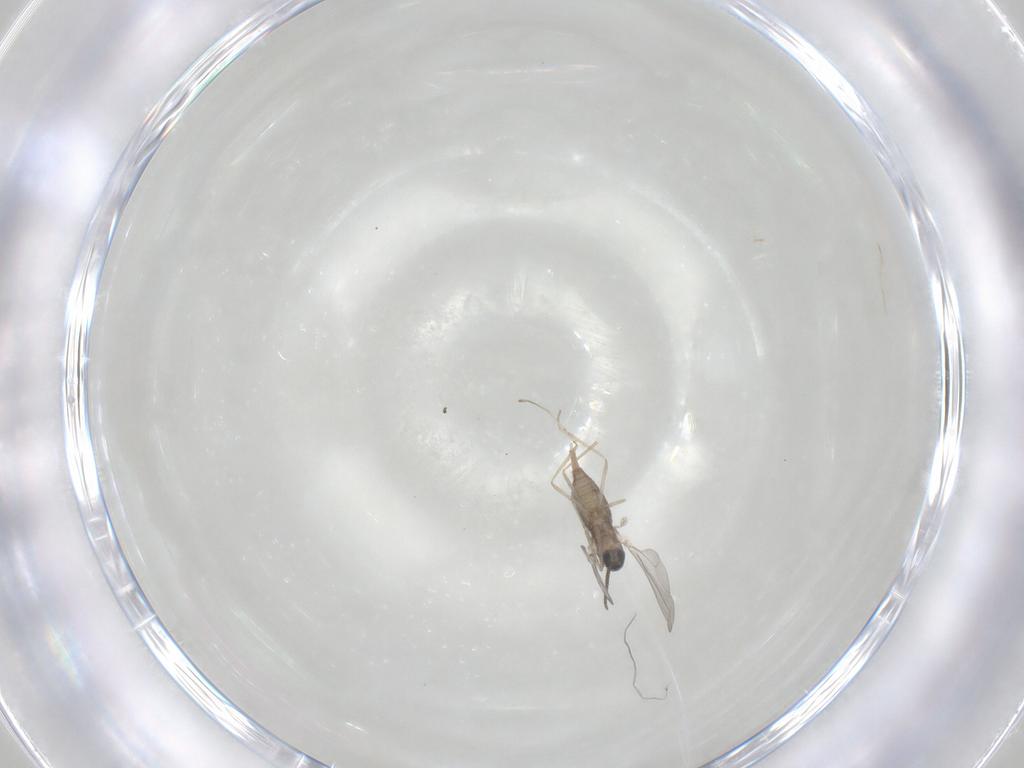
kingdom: Animalia
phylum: Arthropoda
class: Insecta
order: Diptera
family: Cecidomyiidae
